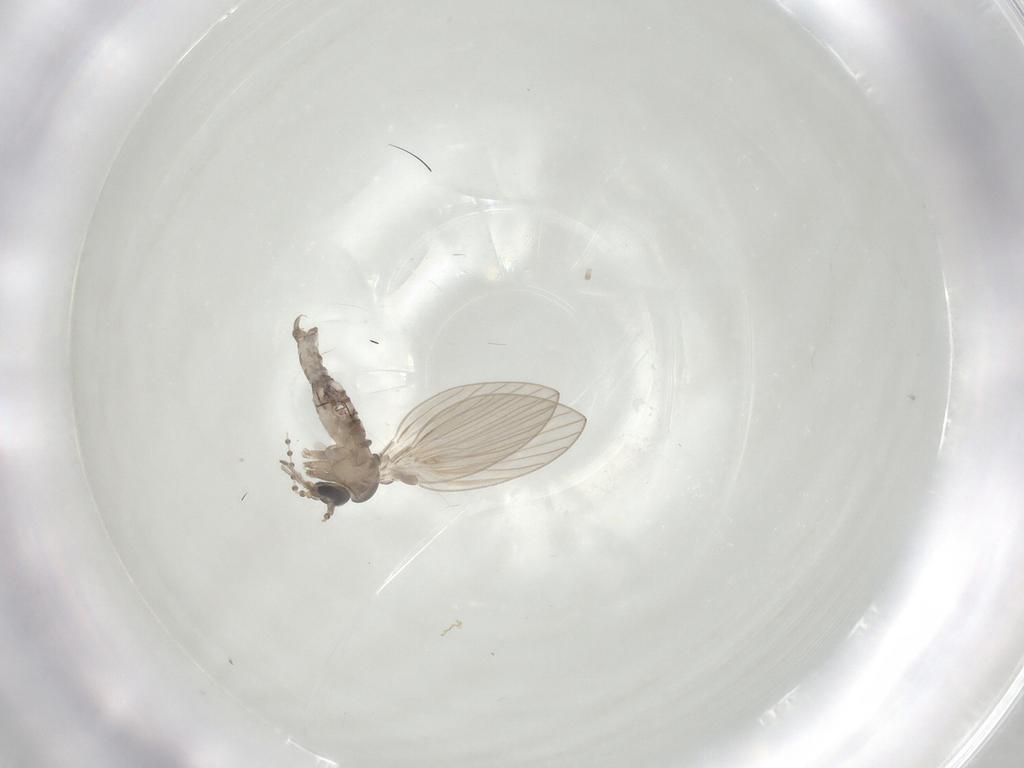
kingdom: Animalia
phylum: Arthropoda
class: Insecta
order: Diptera
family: Psychodidae
